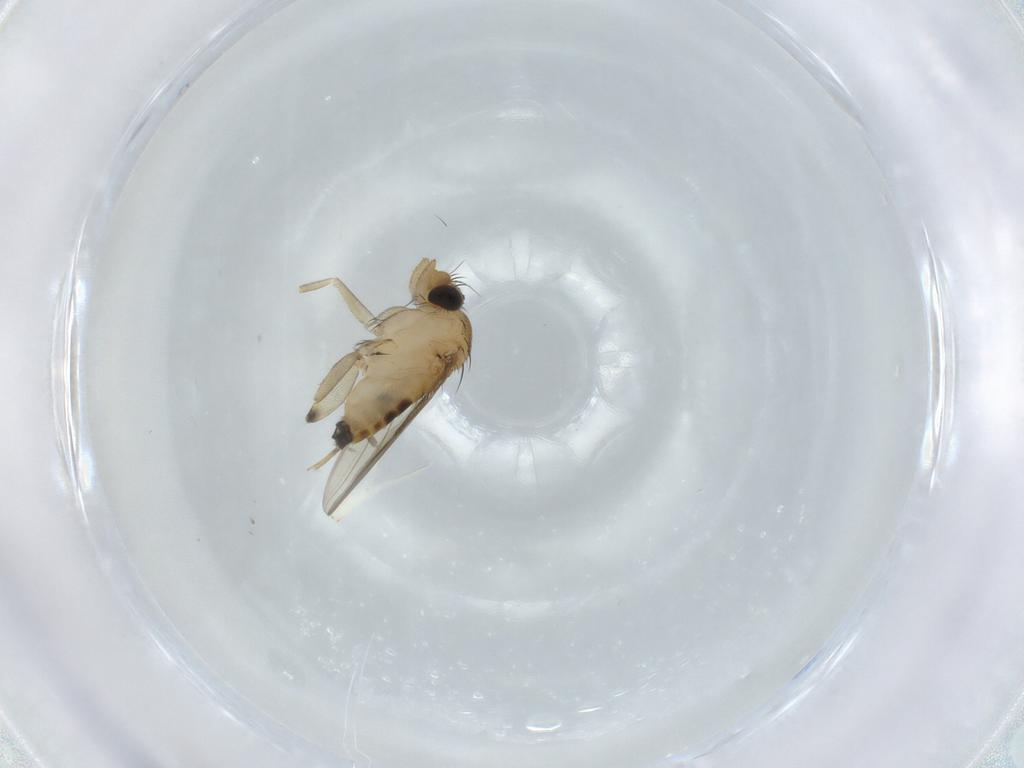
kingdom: Animalia
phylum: Arthropoda
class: Insecta
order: Diptera
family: Phoridae
